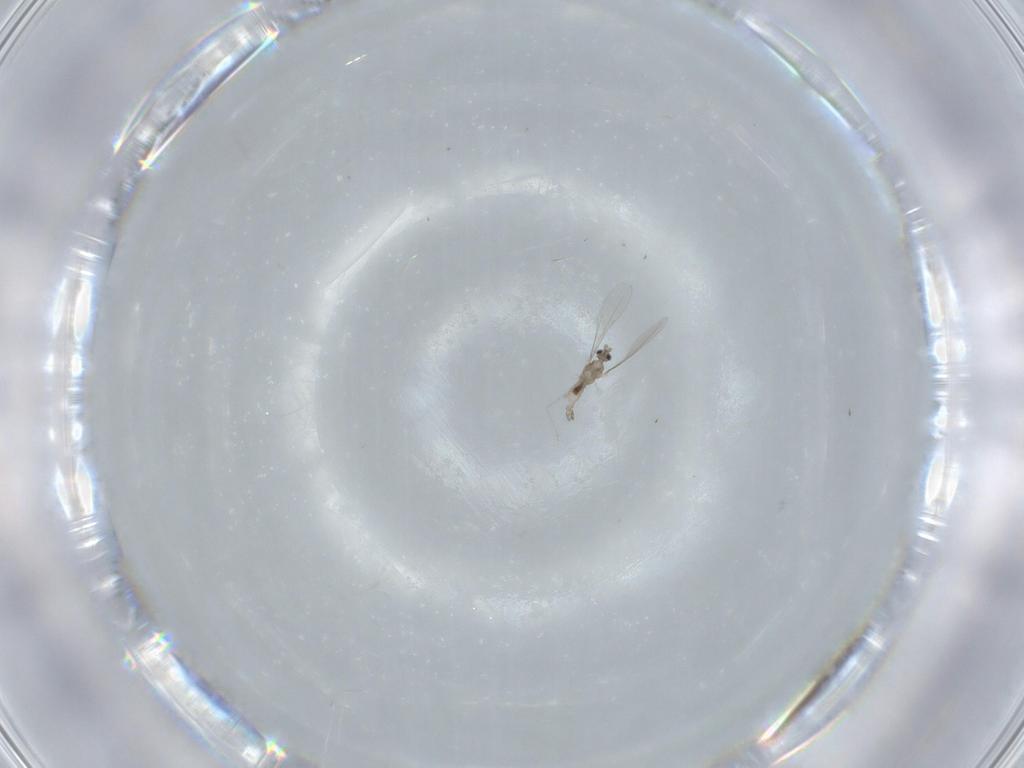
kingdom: Animalia
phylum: Arthropoda
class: Insecta
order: Diptera
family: Cecidomyiidae
